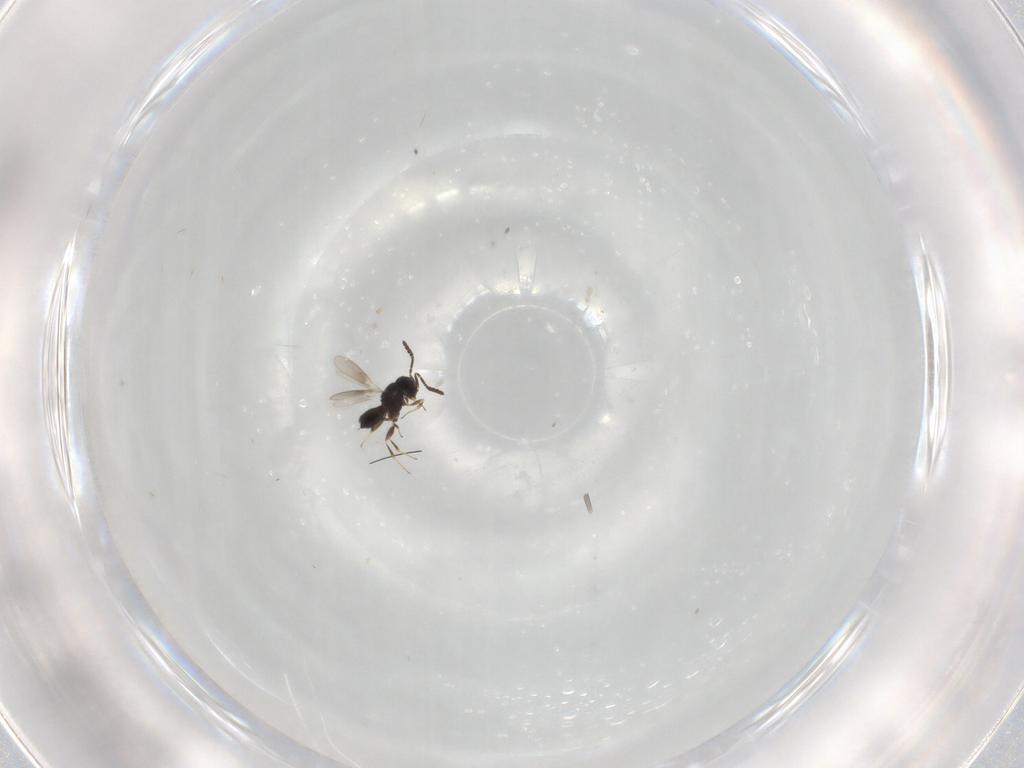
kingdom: Animalia
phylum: Arthropoda
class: Insecta
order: Hymenoptera
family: Scelionidae
